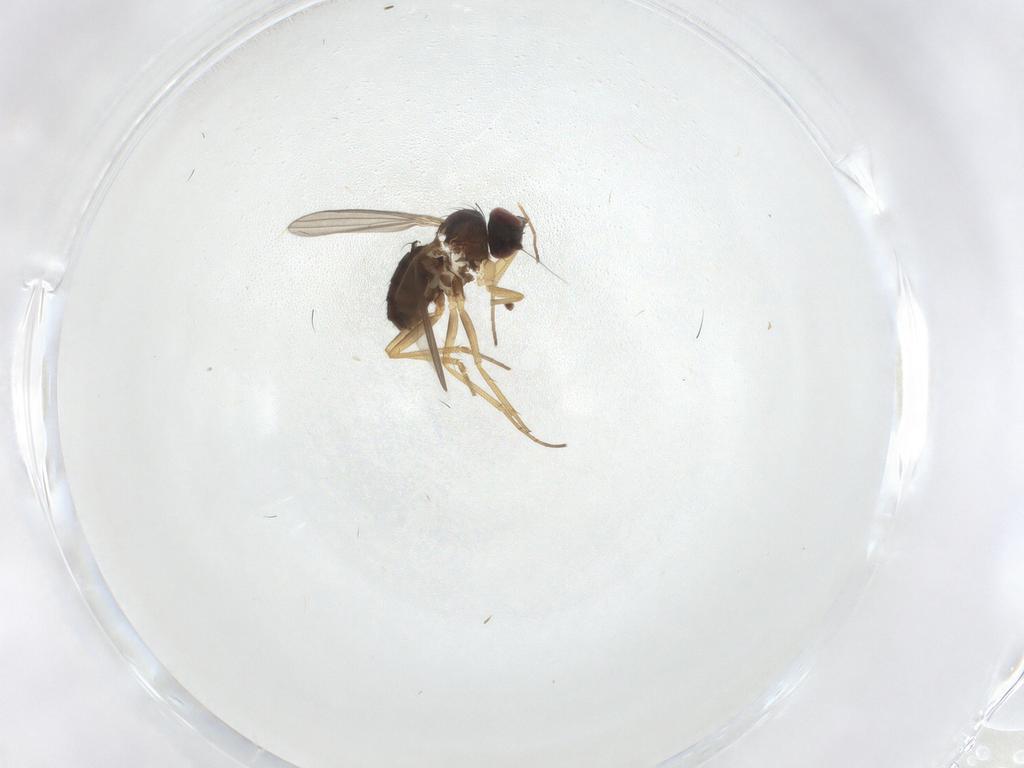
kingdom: Animalia
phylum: Arthropoda
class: Insecta
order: Diptera
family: Dolichopodidae
